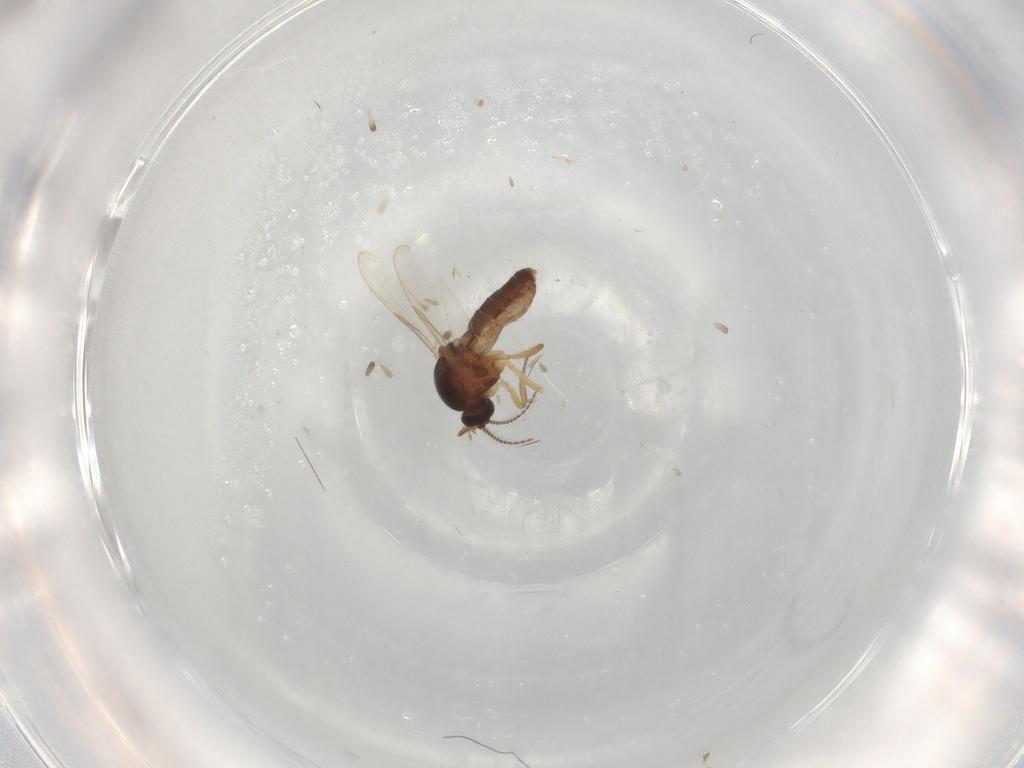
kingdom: Animalia
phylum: Arthropoda
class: Insecta
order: Diptera
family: Ceratopogonidae
